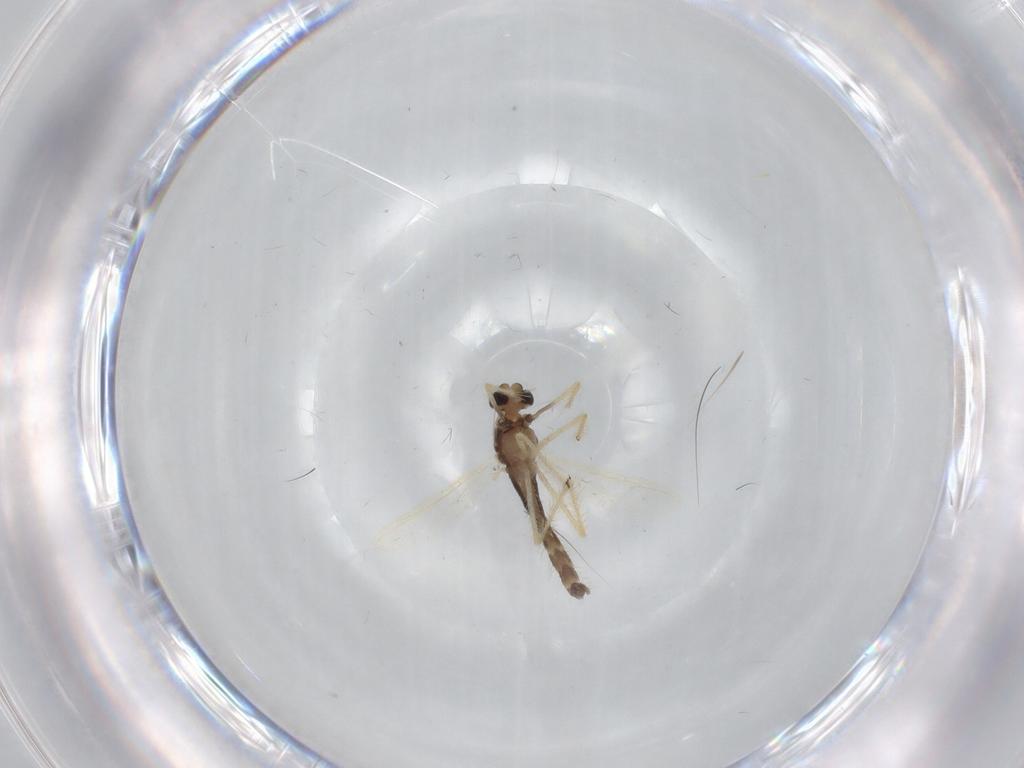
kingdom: Animalia
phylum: Arthropoda
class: Insecta
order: Diptera
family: Chironomidae
